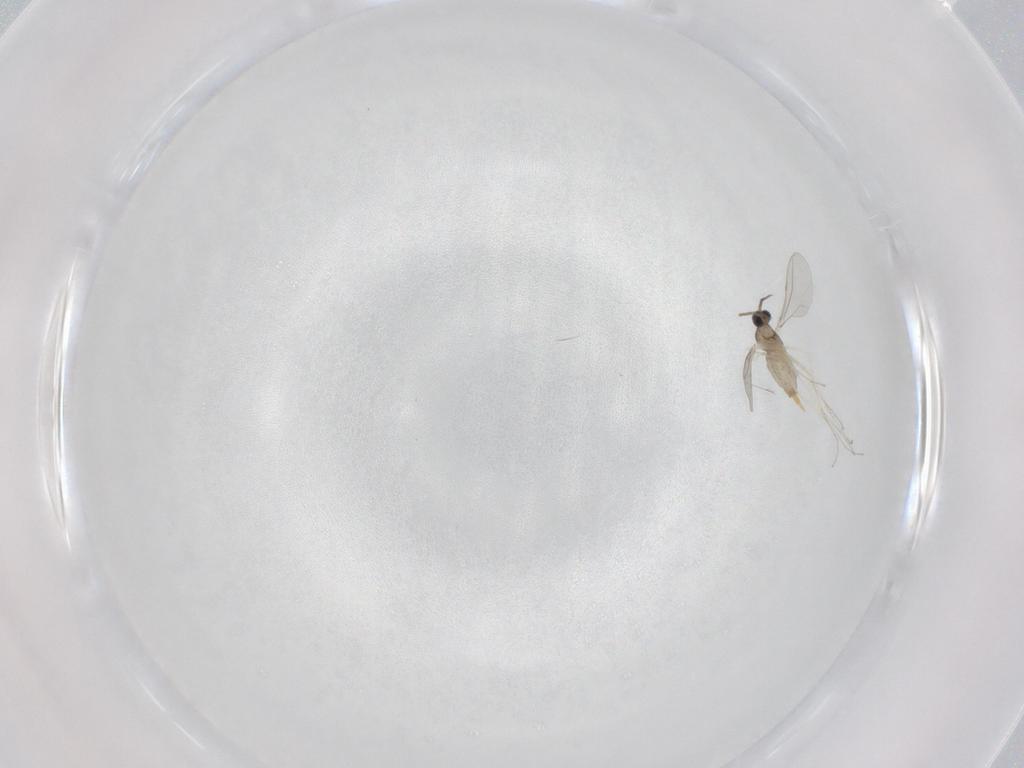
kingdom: Animalia
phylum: Arthropoda
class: Insecta
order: Diptera
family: Cecidomyiidae
